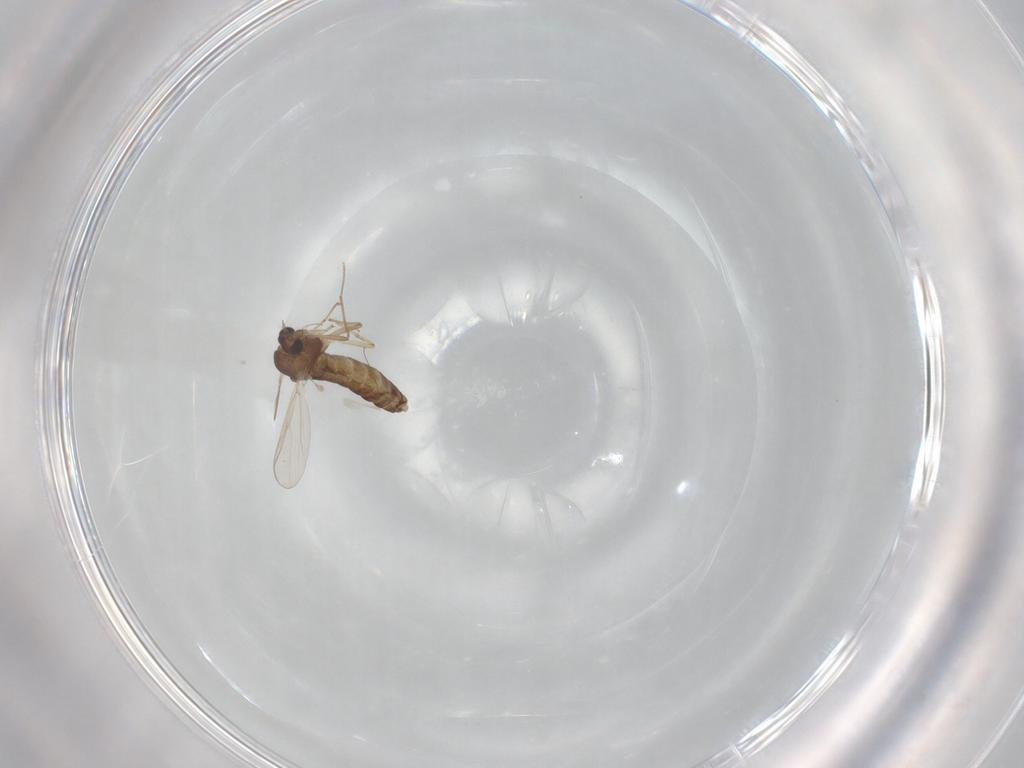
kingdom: Animalia
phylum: Arthropoda
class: Insecta
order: Diptera
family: Chironomidae
